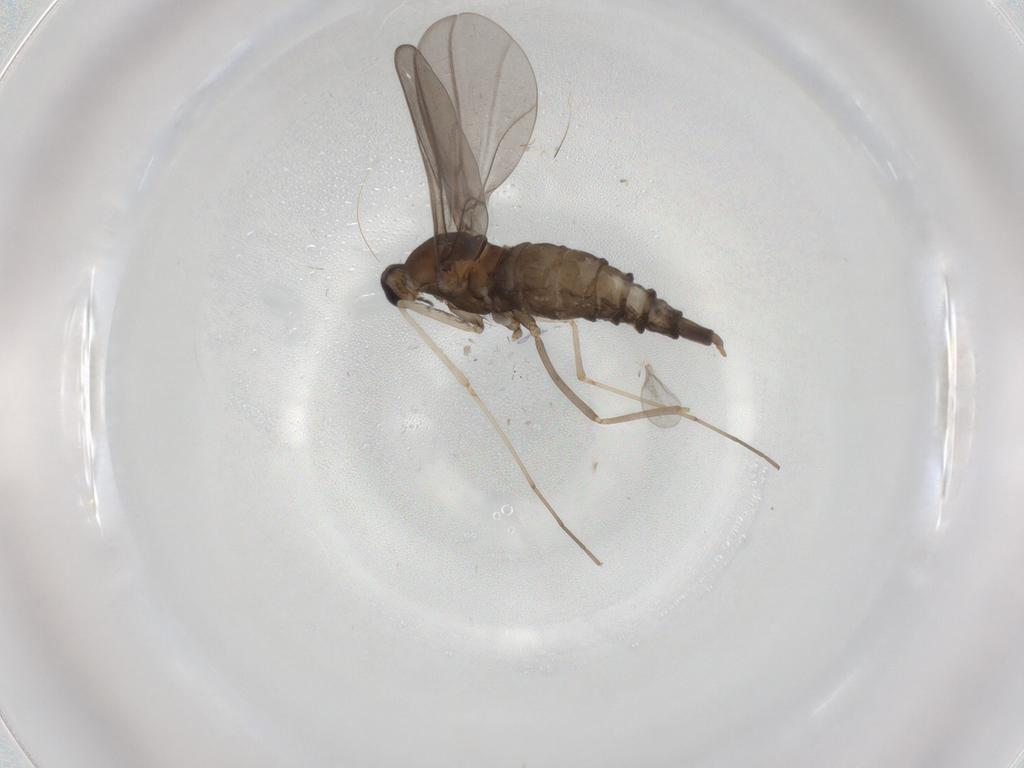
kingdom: Animalia
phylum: Arthropoda
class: Insecta
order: Diptera
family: Cecidomyiidae
